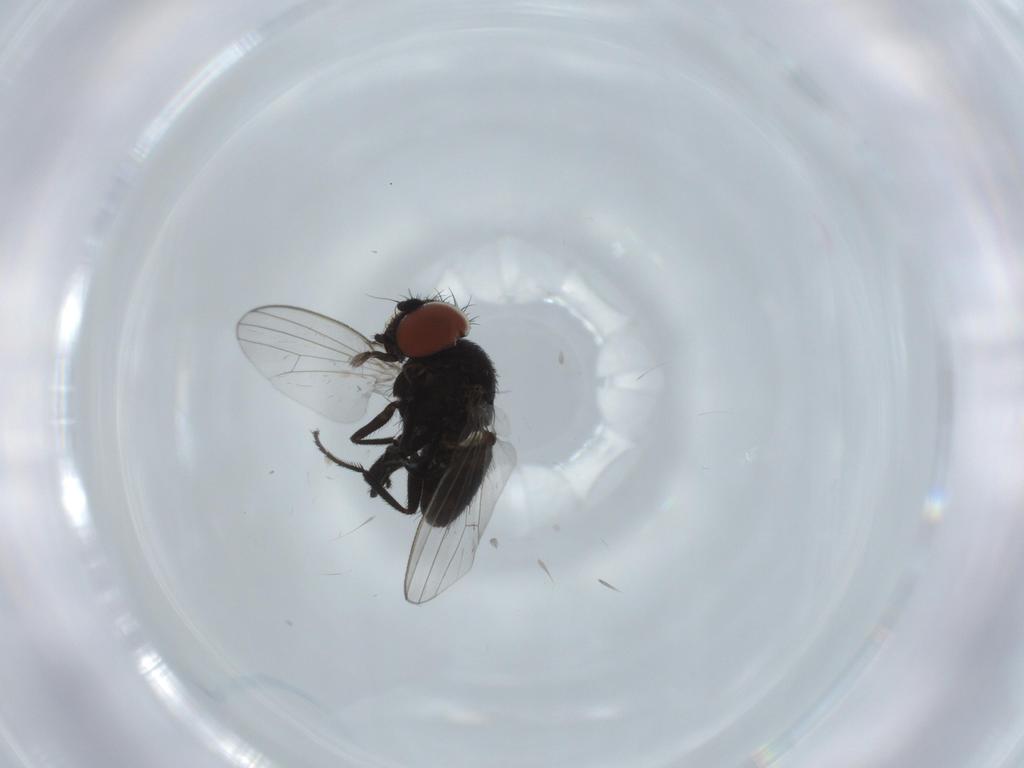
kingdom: Animalia
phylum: Arthropoda
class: Insecta
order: Diptera
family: Milichiidae
